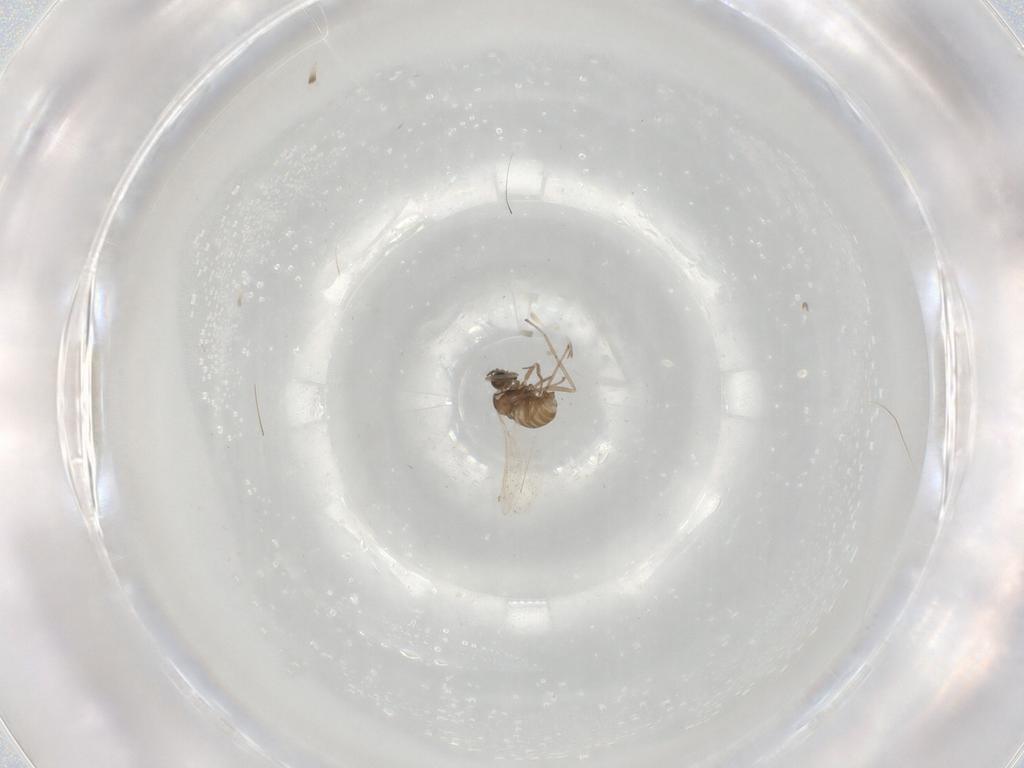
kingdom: Animalia
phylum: Arthropoda
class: Insecta
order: Diptera
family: Cecidomyiidae
